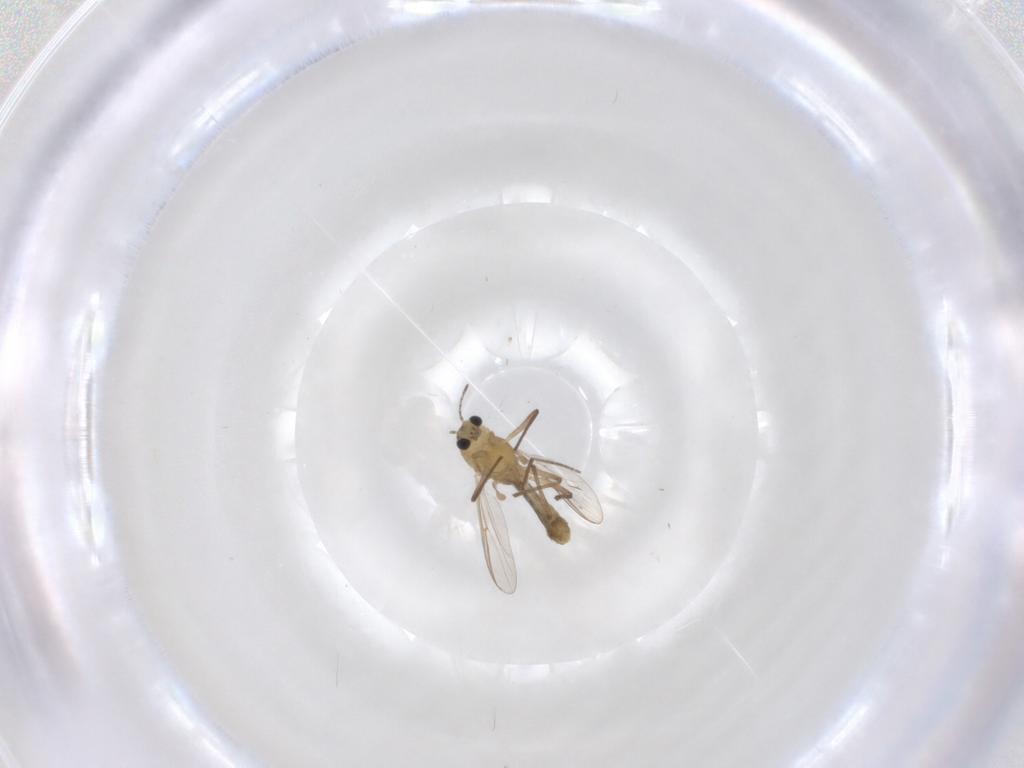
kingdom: Animalia
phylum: Arthropoda
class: Insecta
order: Diptera
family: Chironomidae
